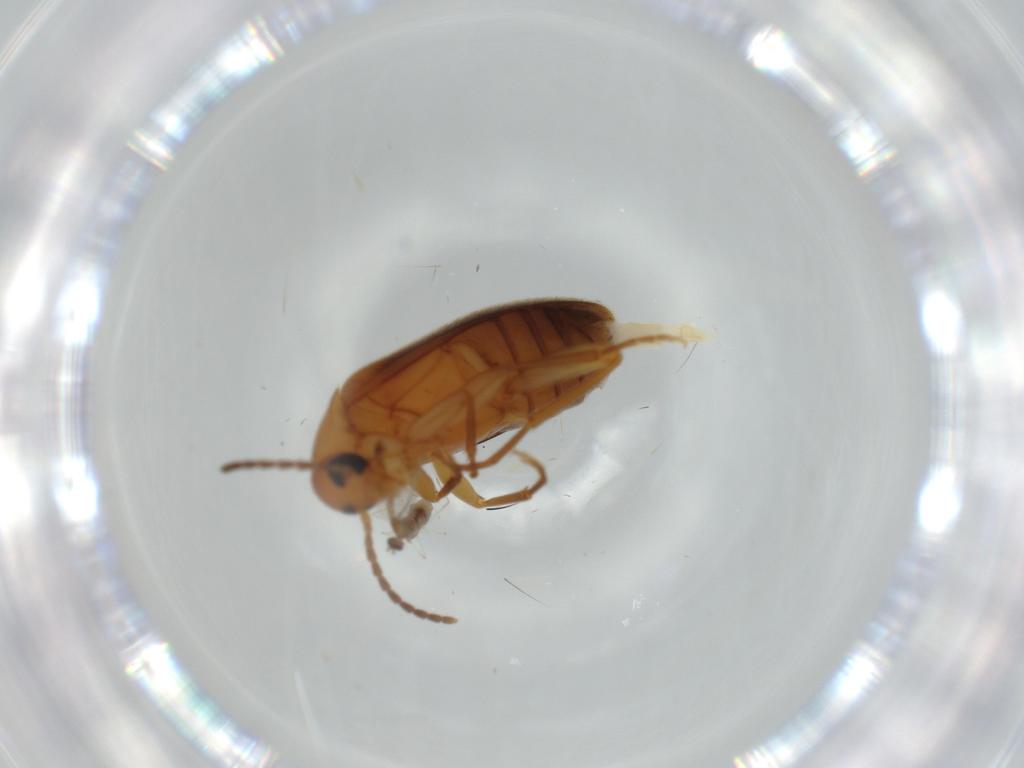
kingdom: Animalia
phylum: Arthropoda
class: Insecta
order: Coleoptera
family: Scraptiidae
